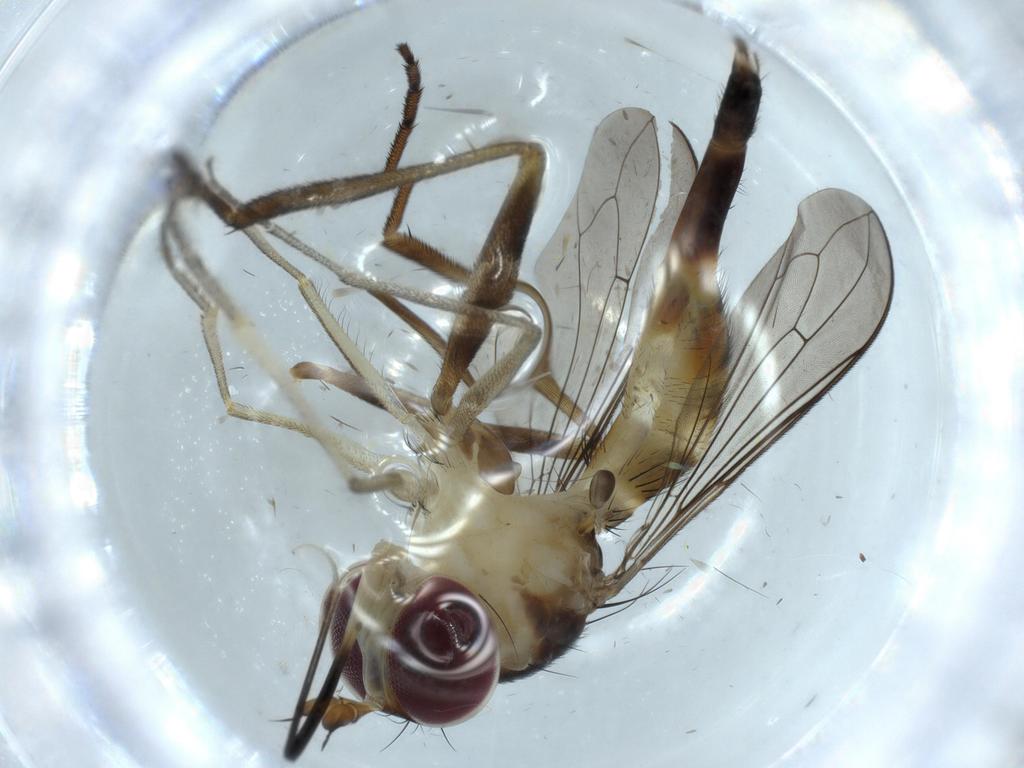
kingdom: Animalia
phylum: Arthropoda
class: Insecta
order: Diptera
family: Conopidae
